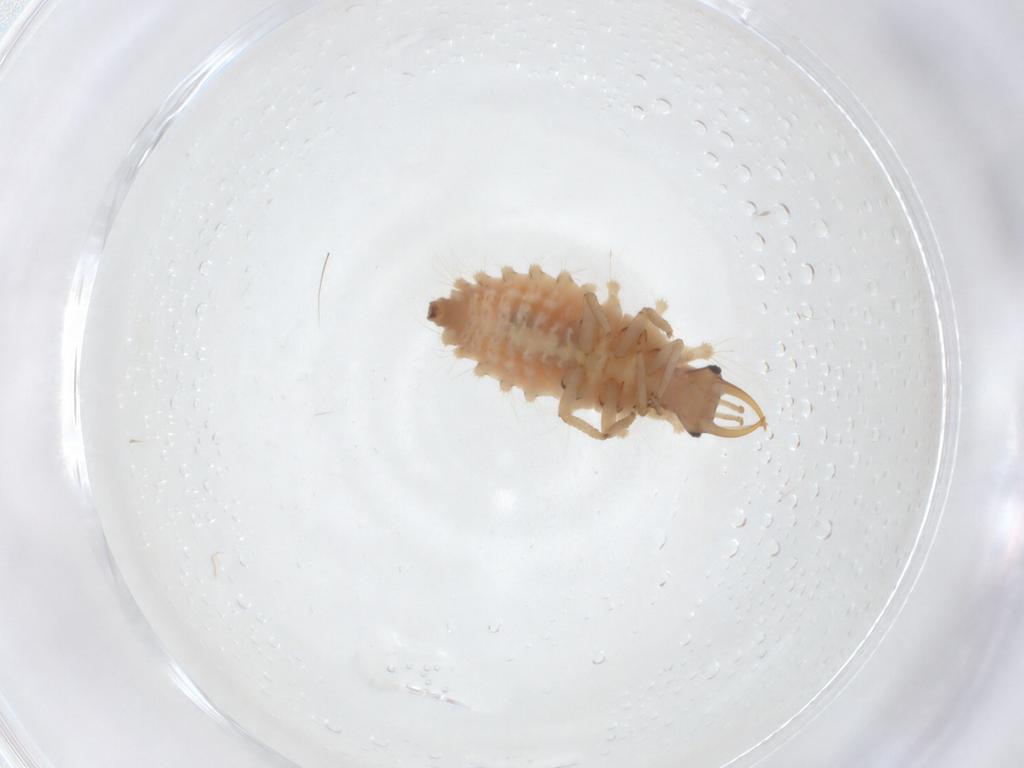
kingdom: Animalia
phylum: Arthropoda
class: Insecta
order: Neuroptera
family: Chrysopidae
